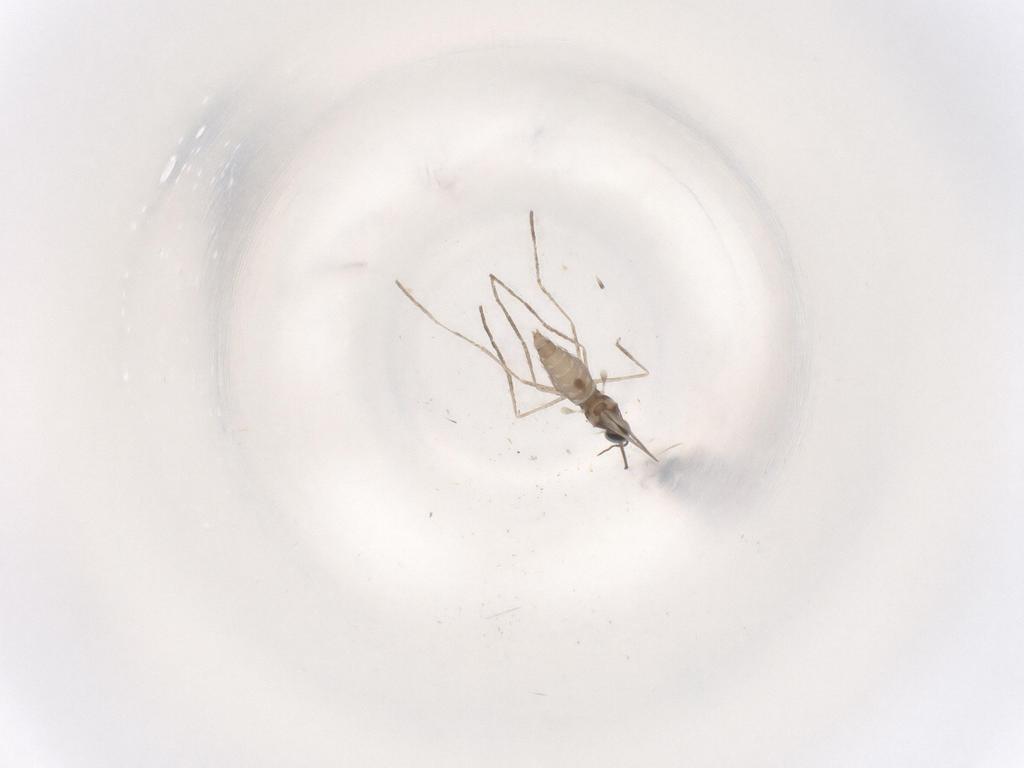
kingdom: Animalia
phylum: Arthropoda
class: Insecta
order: Diptera
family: Cecidomyiidae
